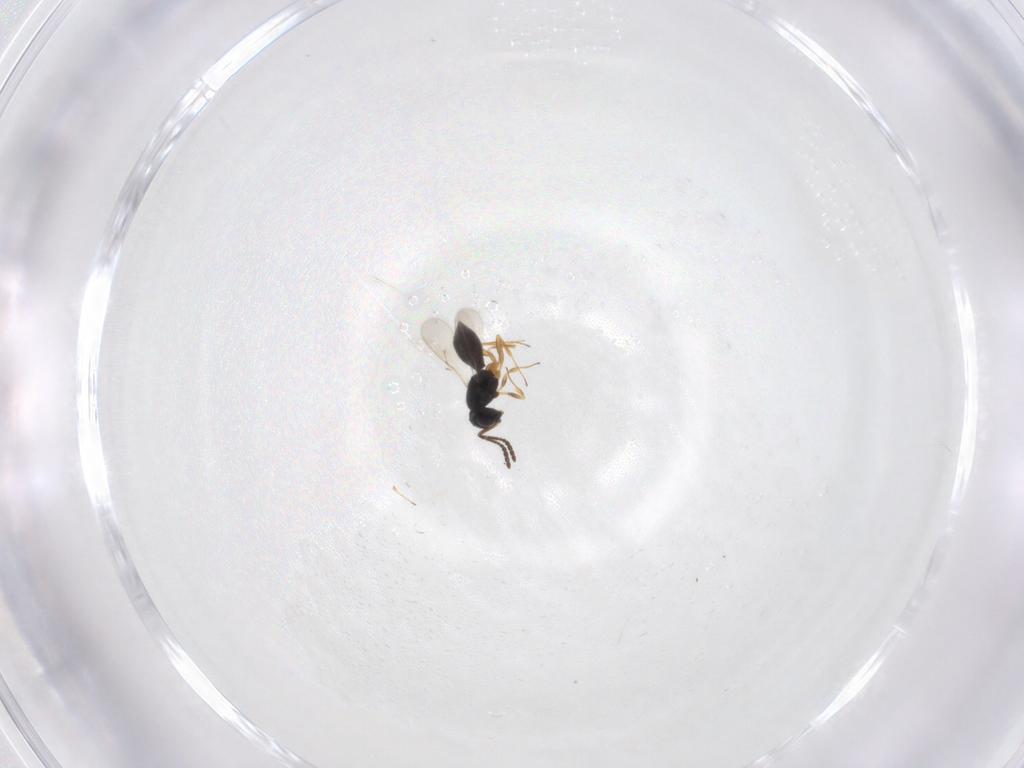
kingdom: Animalia
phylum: Arthropoda
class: Insecta
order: Hymenoptera
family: Scelionidae
